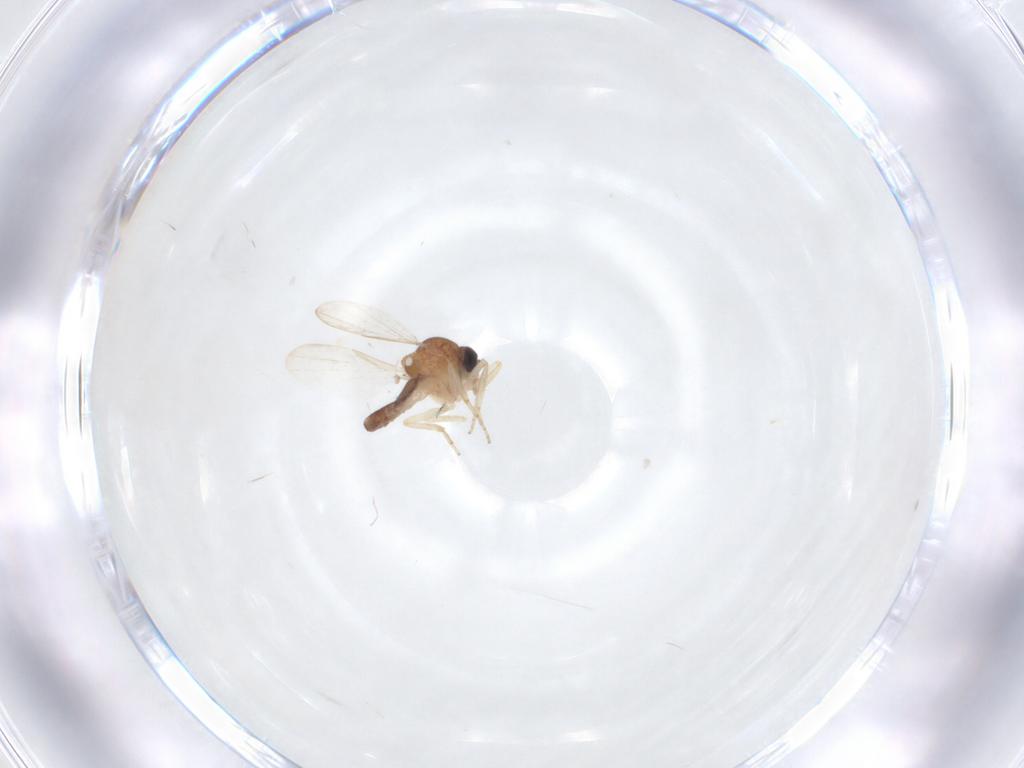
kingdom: Animalia
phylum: Arthropoda
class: Insecta
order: Diptera
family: Ceratopogonidae
